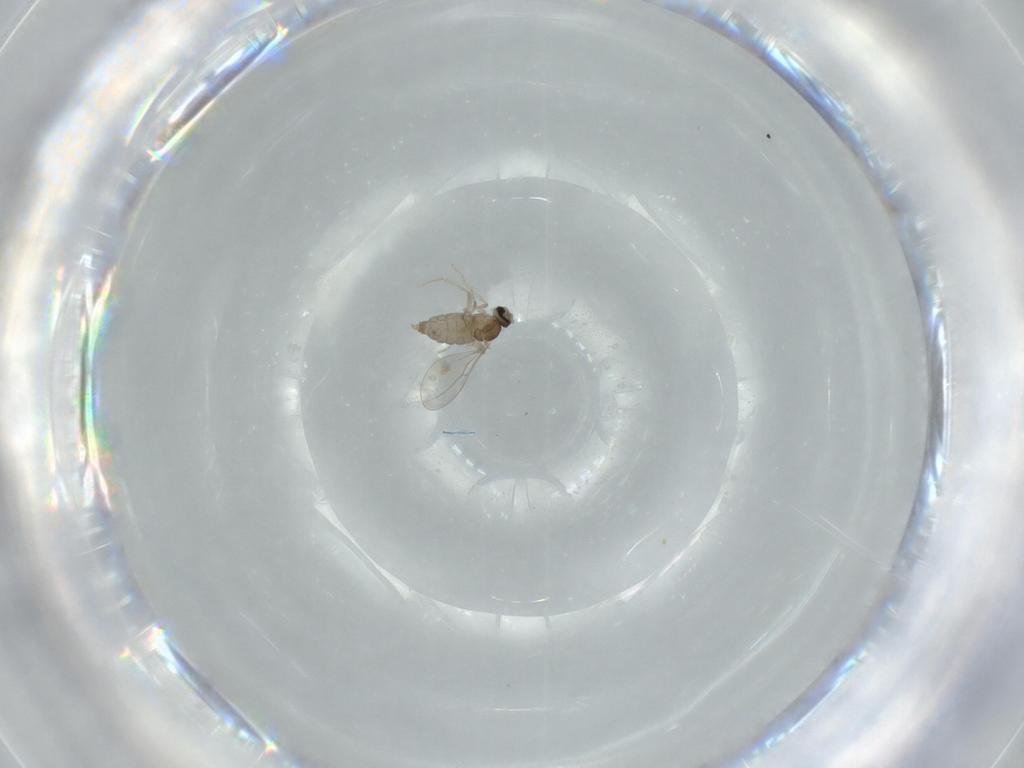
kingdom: Animalia
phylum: Arthropoda
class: Insecta
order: Diptera
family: Cecidomyiidae
